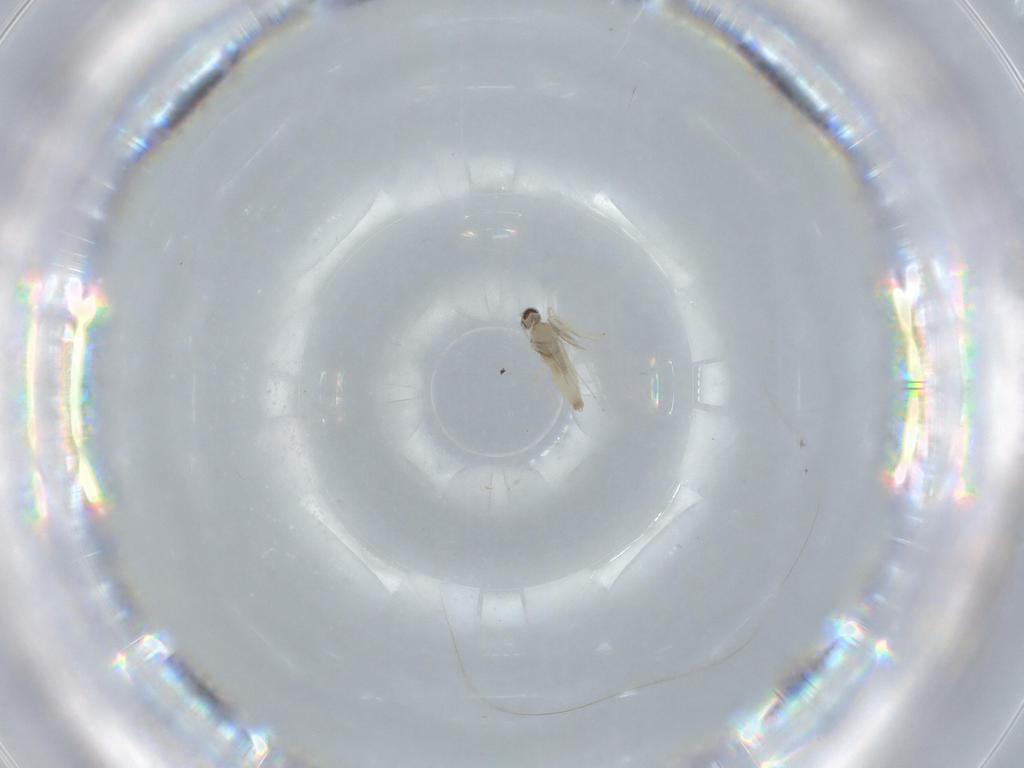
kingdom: Animalia
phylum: Arthropoda
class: Insecta
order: Diptera
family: Cecidomyiidae
